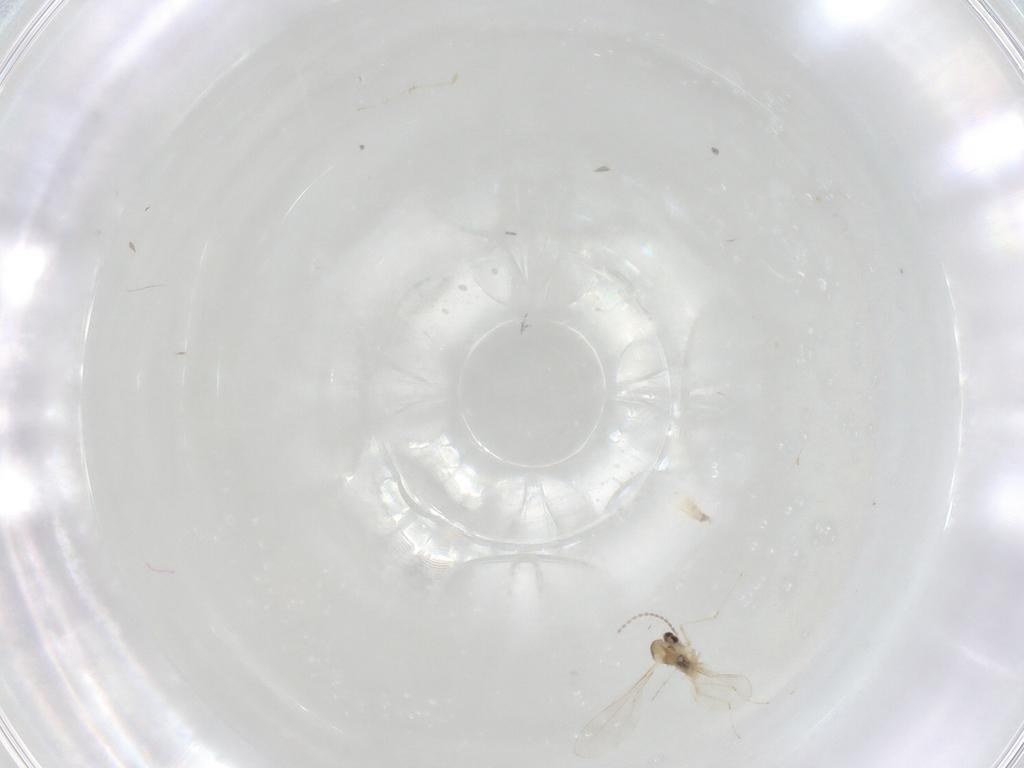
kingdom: Animalia
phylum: Arthropoda
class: Insecta
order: Diptera
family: Cecidomyiidae
